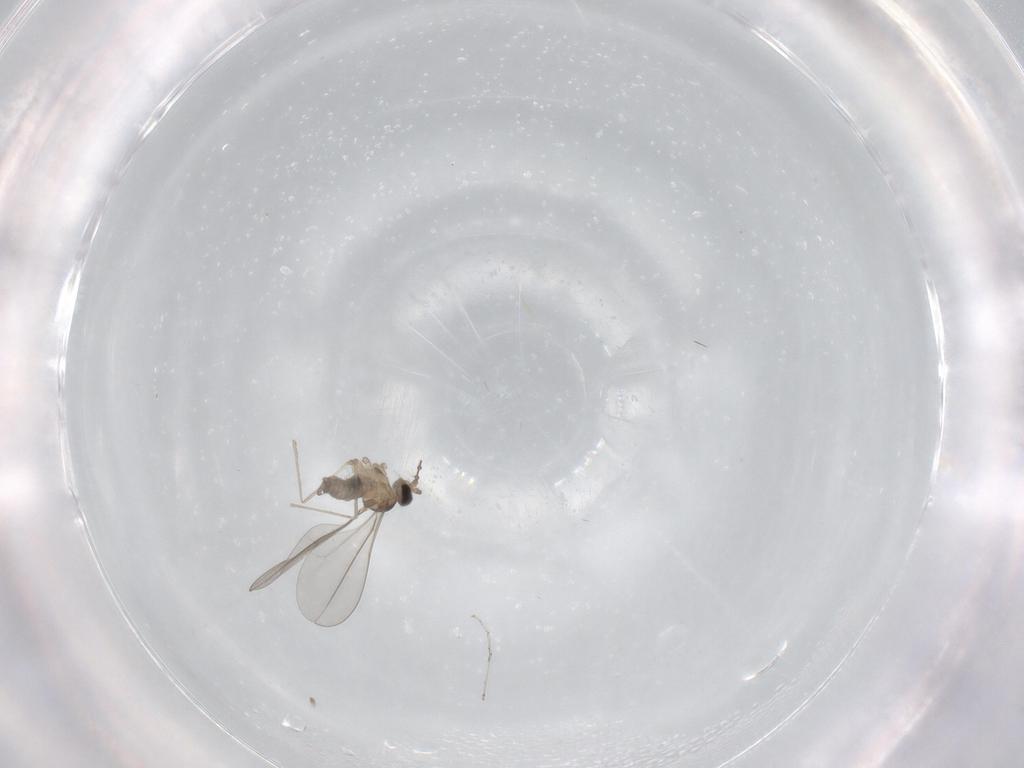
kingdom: Animalia
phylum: Arthropoda
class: Insecta
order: Diptera
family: Cecidomyiidae
